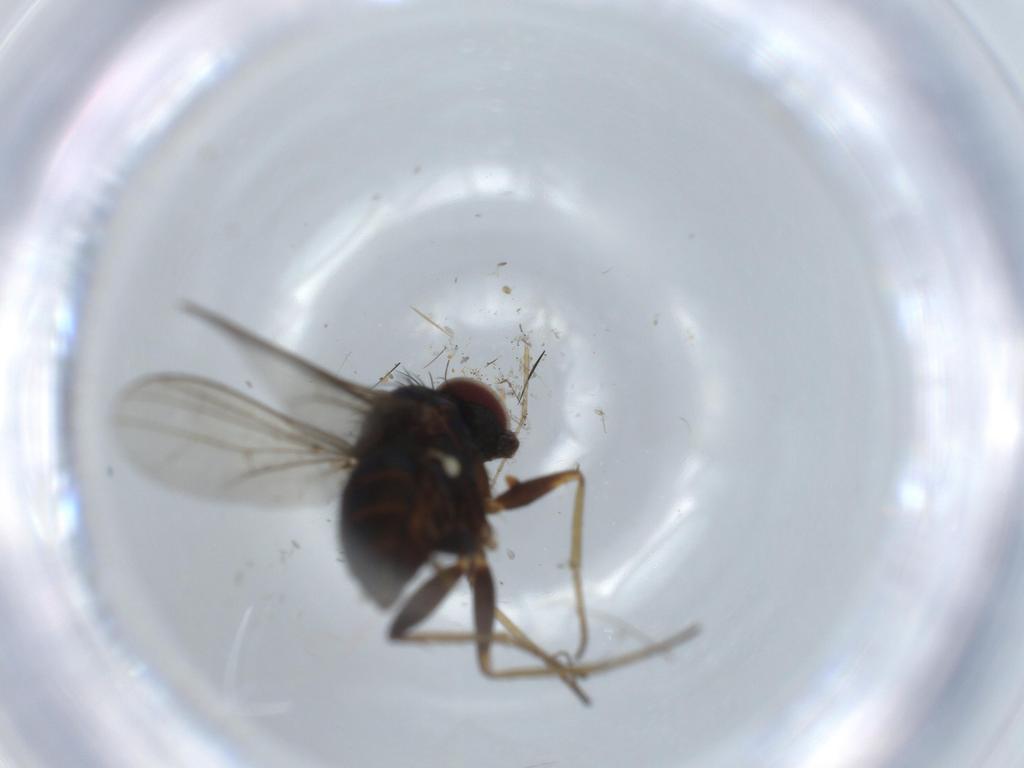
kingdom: Animalia
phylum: Arthropoda
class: Insecta
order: Diptera
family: Dolichopodidae
